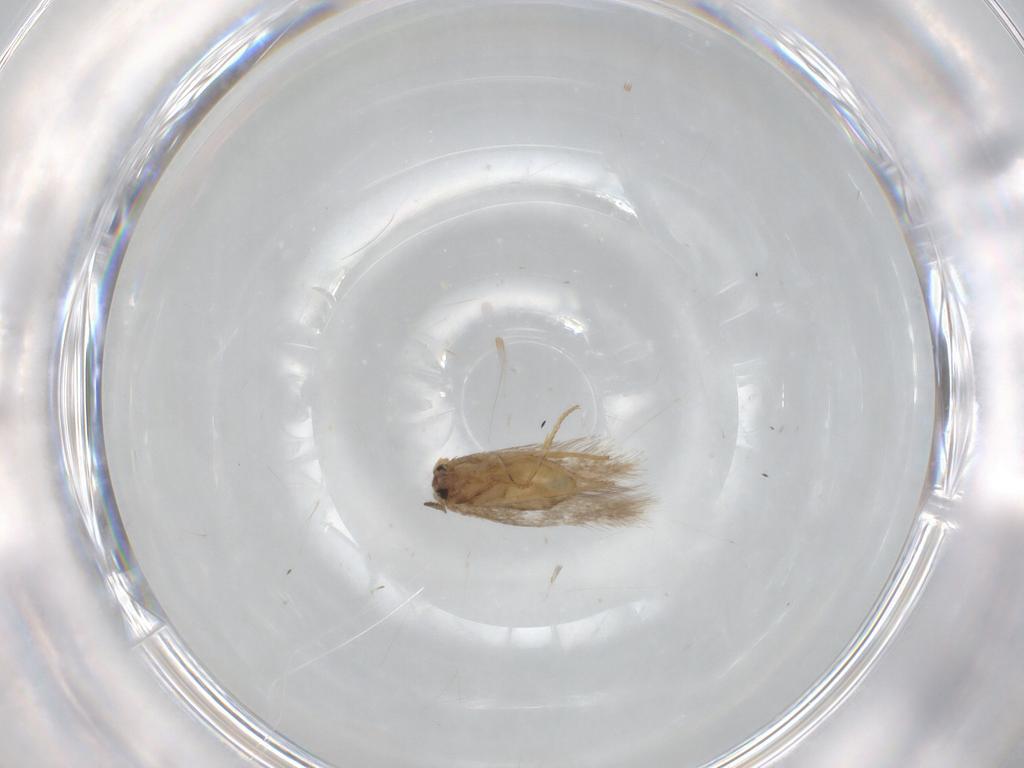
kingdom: Animalia
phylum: Arthropoda
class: Insecta
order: Lepidoptera
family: Nepticulidae
